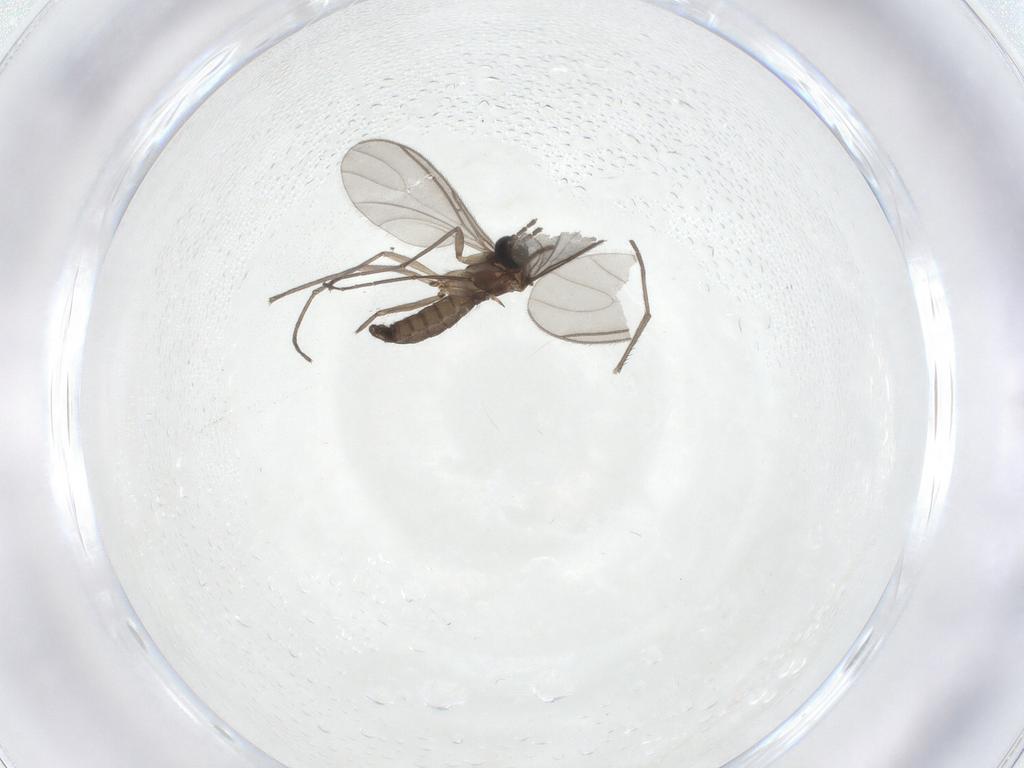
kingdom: Animalia
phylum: Arthropoda
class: Insecta
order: Diptera
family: Sciaridae
